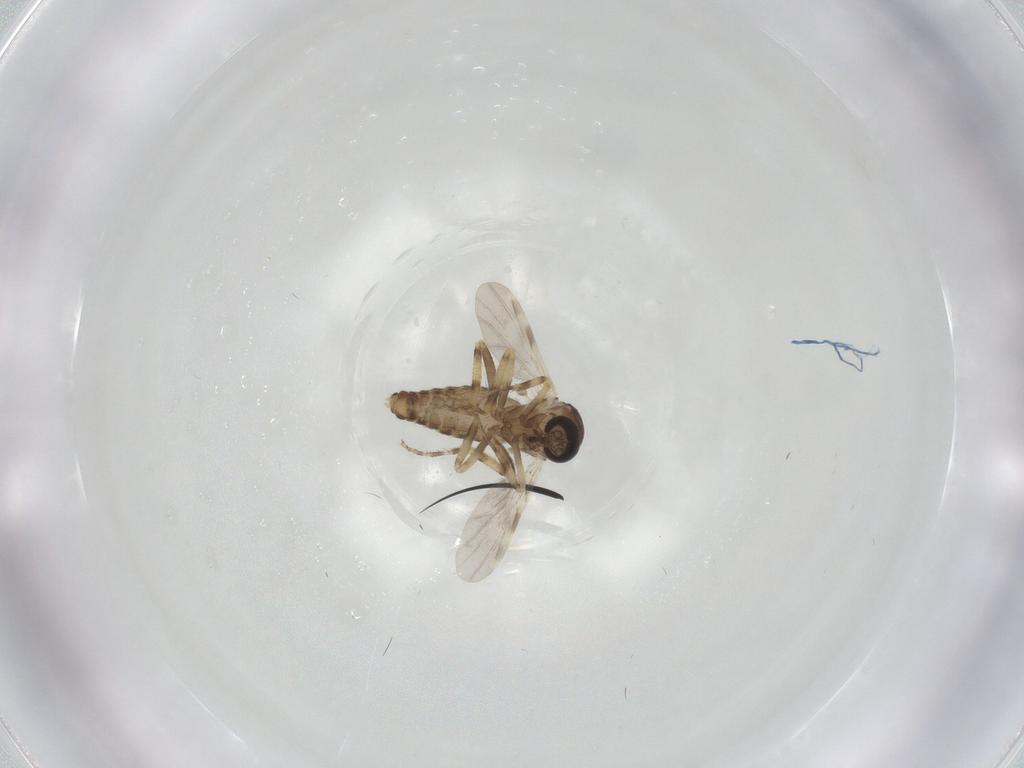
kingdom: Animalia
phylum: Arthropoda
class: Insecta
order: Diptera
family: Ceratopogonidae
